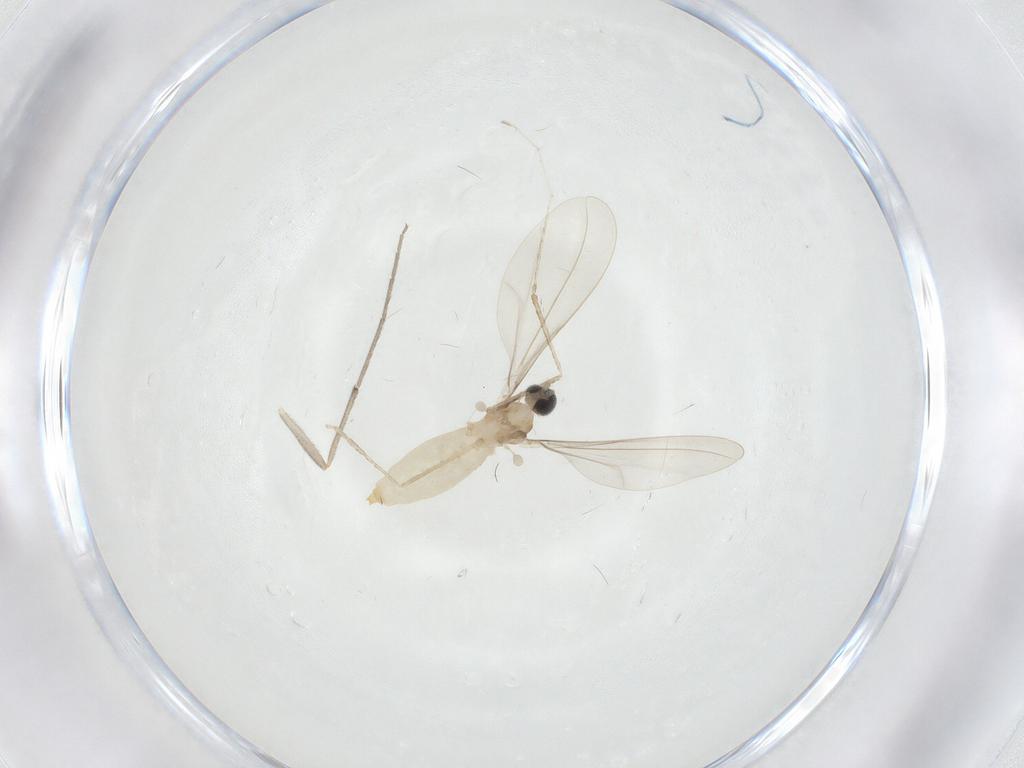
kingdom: Animalia
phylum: Arthropoda
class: Insecta
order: Diptera
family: Cecidomyiidae
